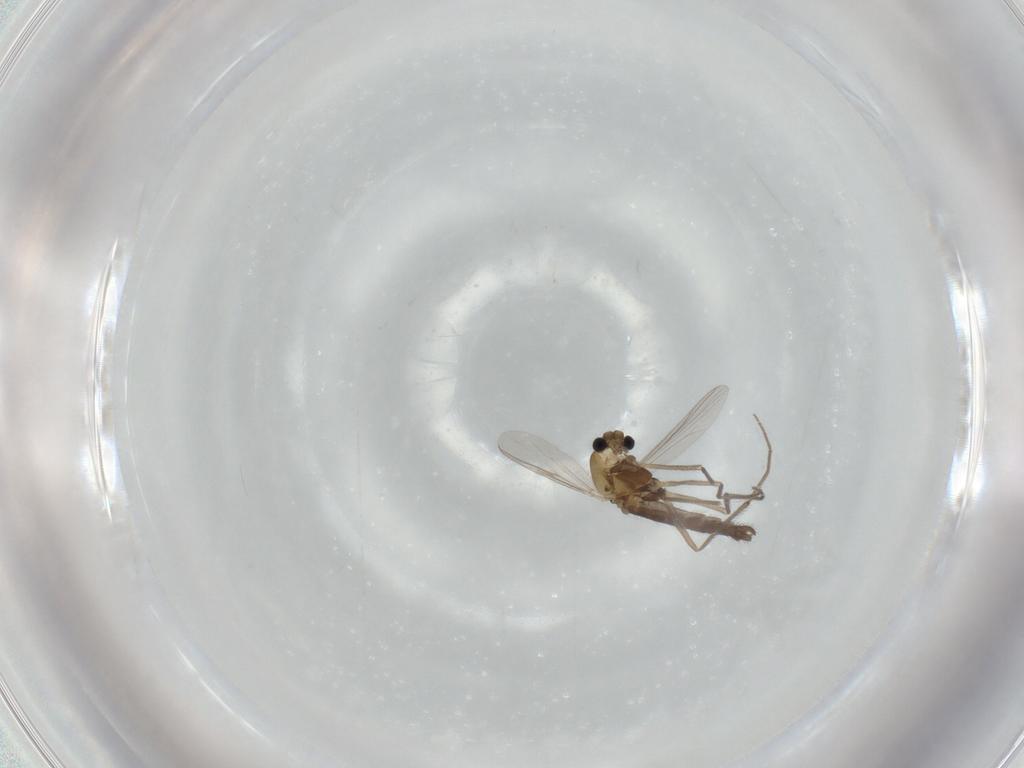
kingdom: Animalia
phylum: Arthropoda
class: Insecta
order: Diptera
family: Chironomidae
